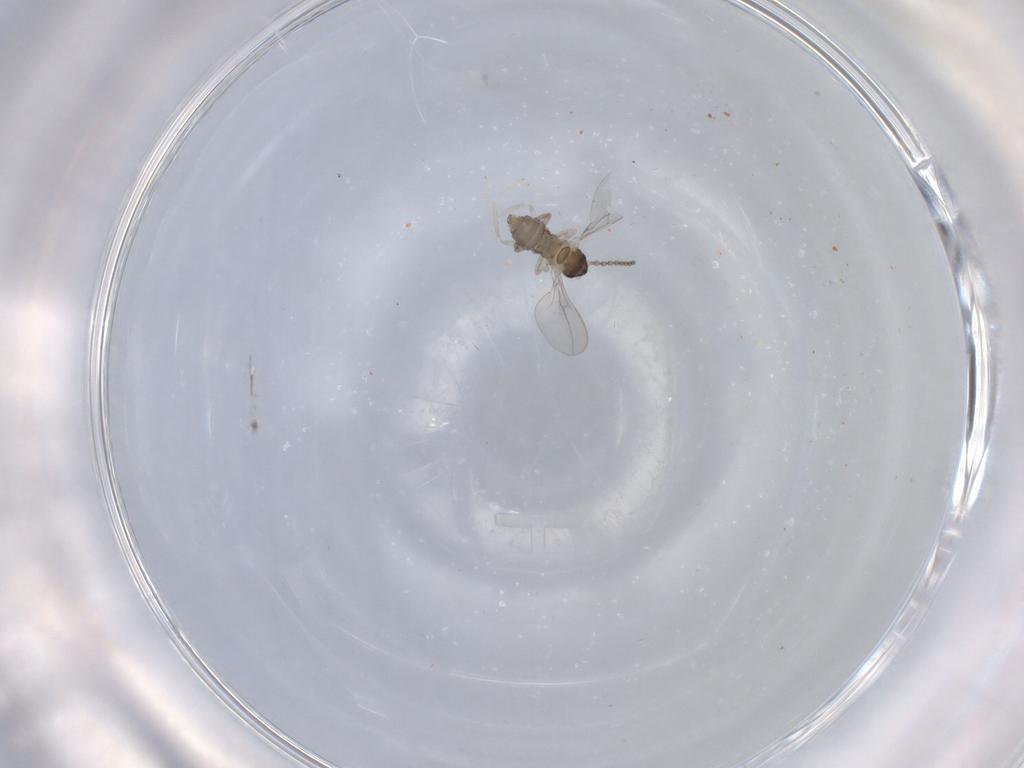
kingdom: Animalia
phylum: Arthropoda
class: Insecta
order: Diptera
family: Cecidomyiidae
